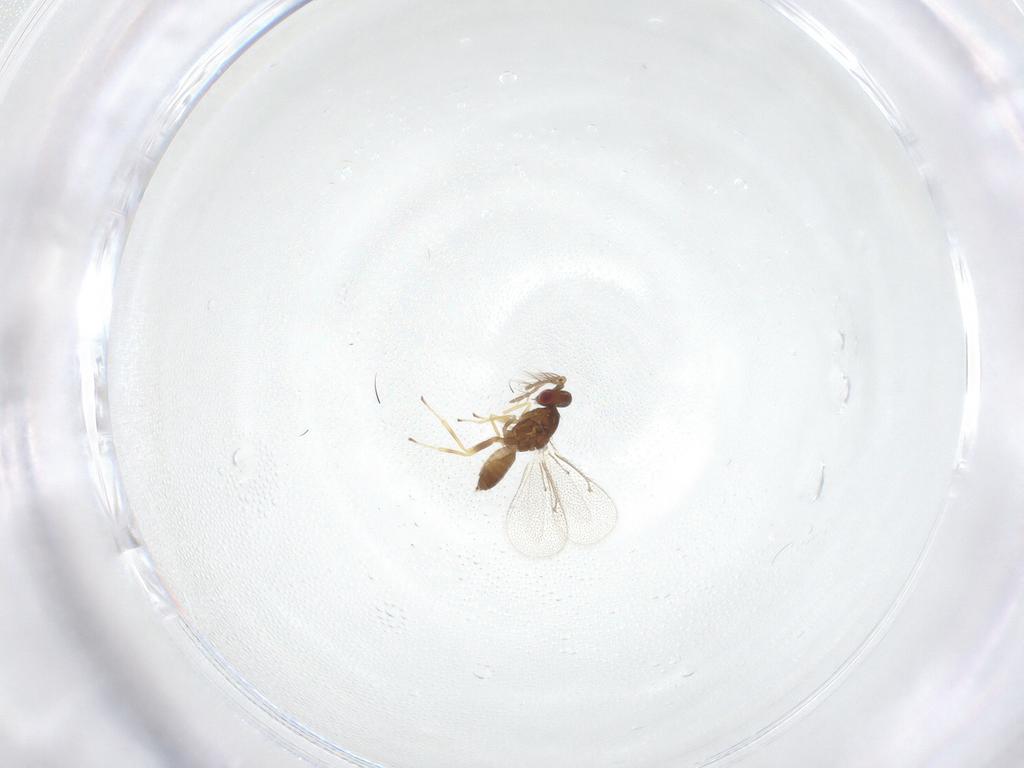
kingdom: Animalia
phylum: Arthropoda
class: Insecta
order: Hymenoptera
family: Eulophidae
